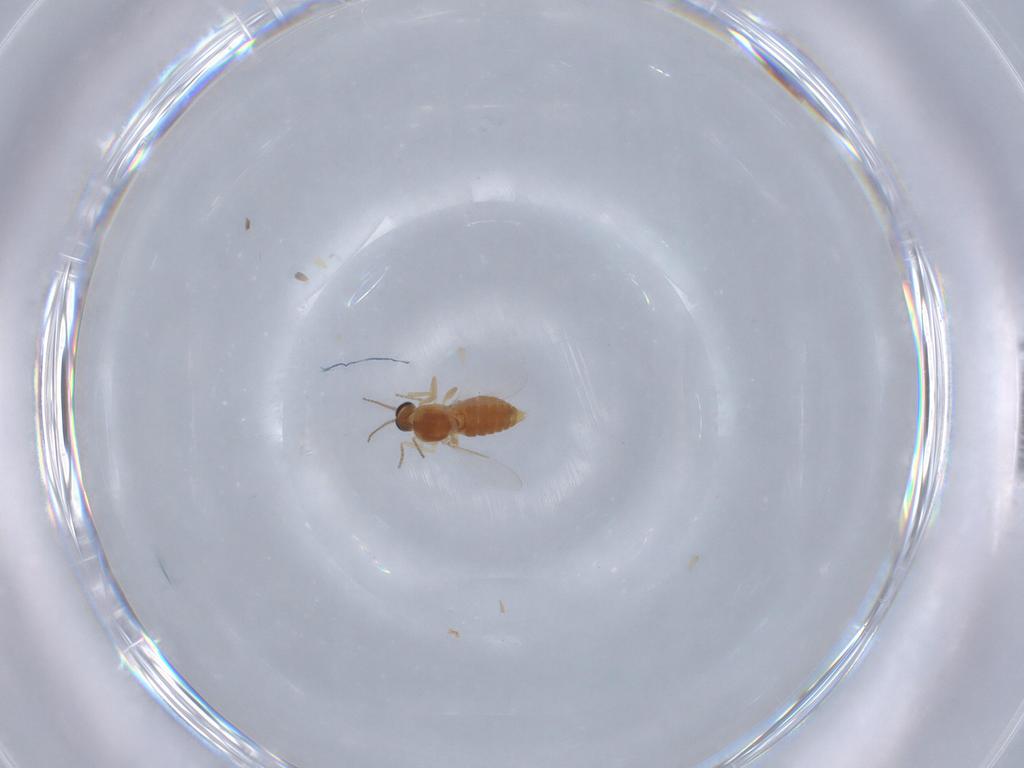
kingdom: Animalia
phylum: Arthropoda
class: Insecta
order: Diptera
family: Ceratopogonidae
